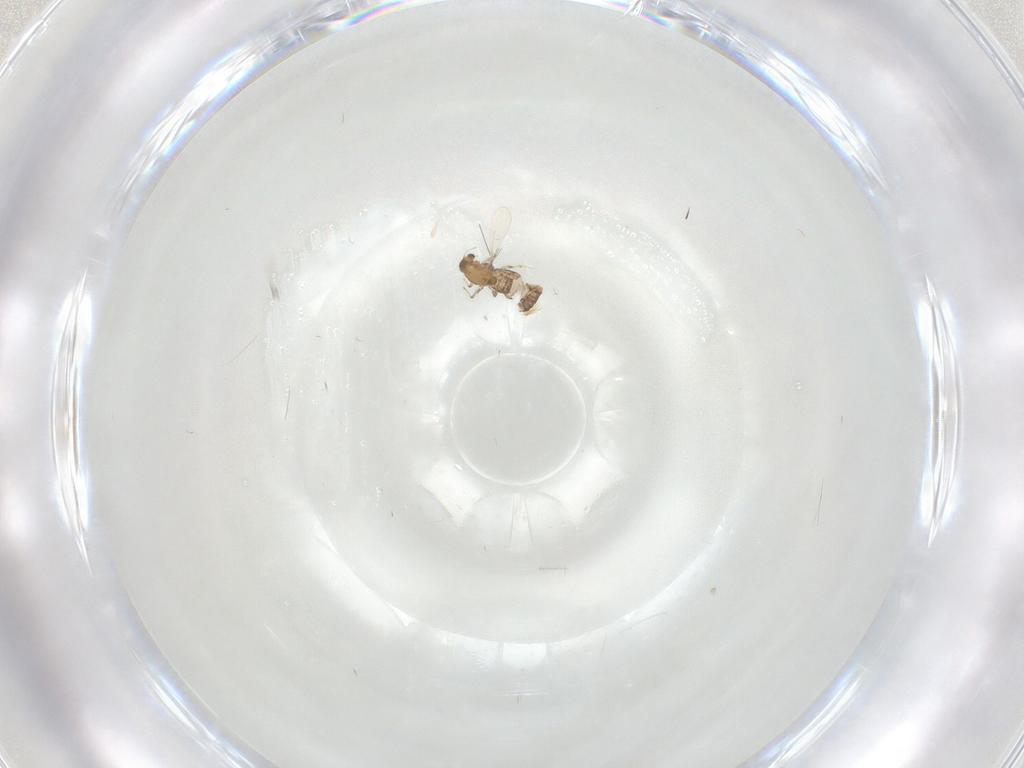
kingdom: Animalia
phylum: Arthropoda
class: Insecta
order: Diptera
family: Chironomidae
